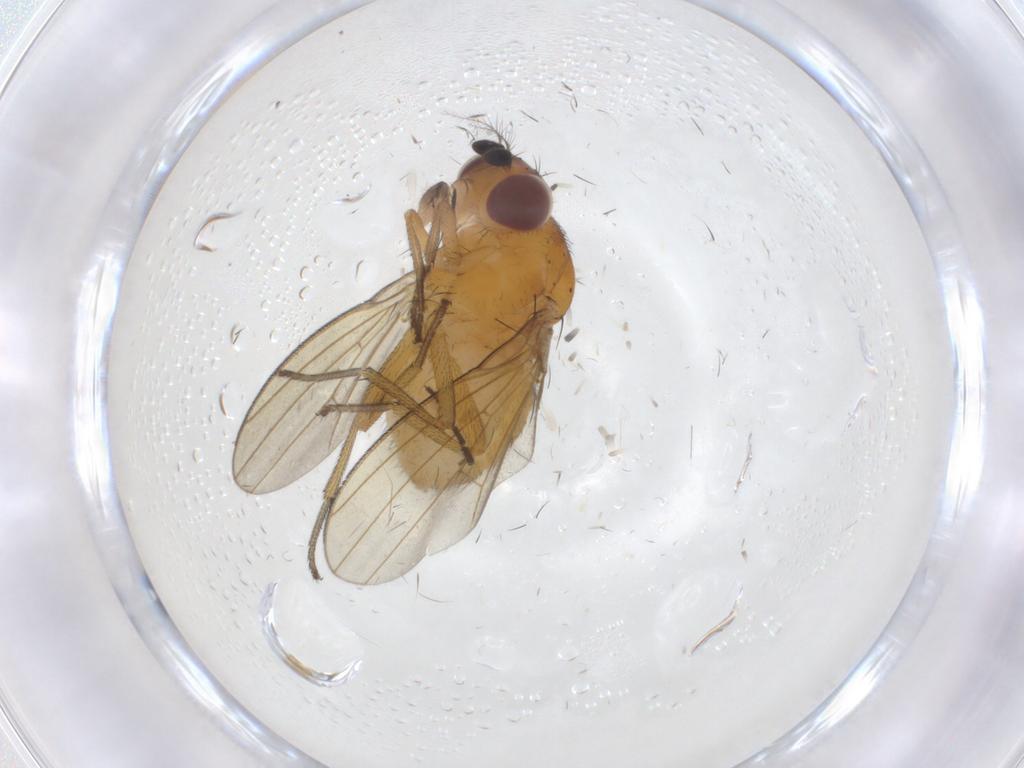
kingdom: Animalia
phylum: Arthropoda
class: Insecta
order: Diptera
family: Sciaridae
